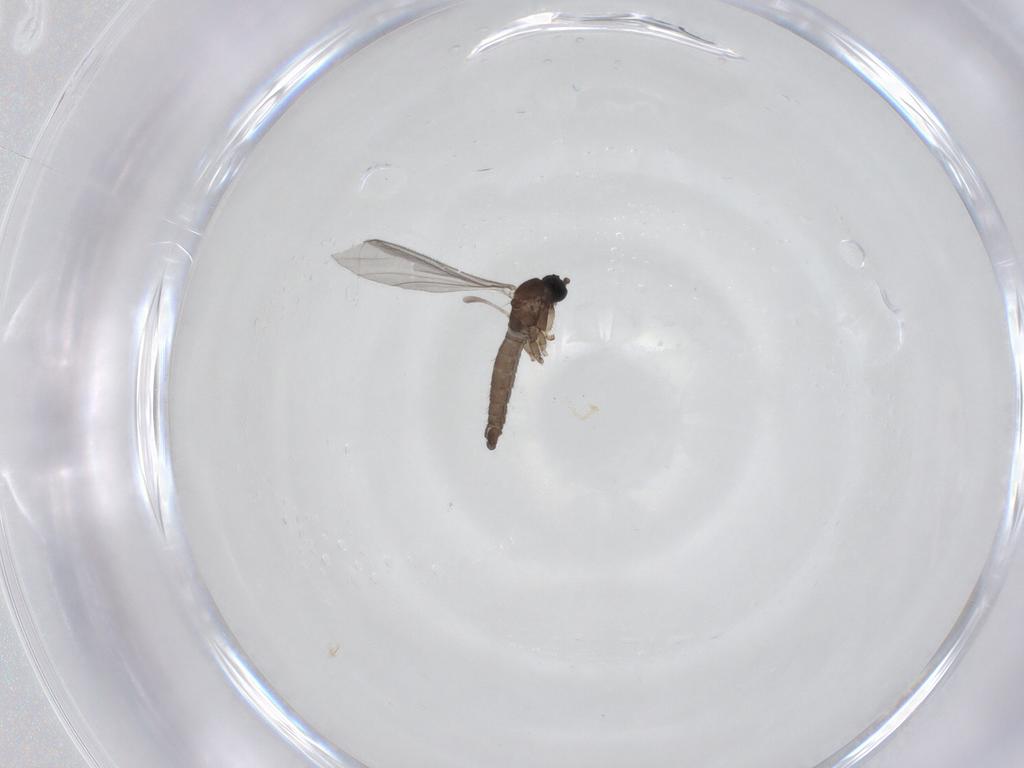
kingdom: Animalia
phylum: Arthropoda
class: Insecta
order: Diptera
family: Sciaridae
